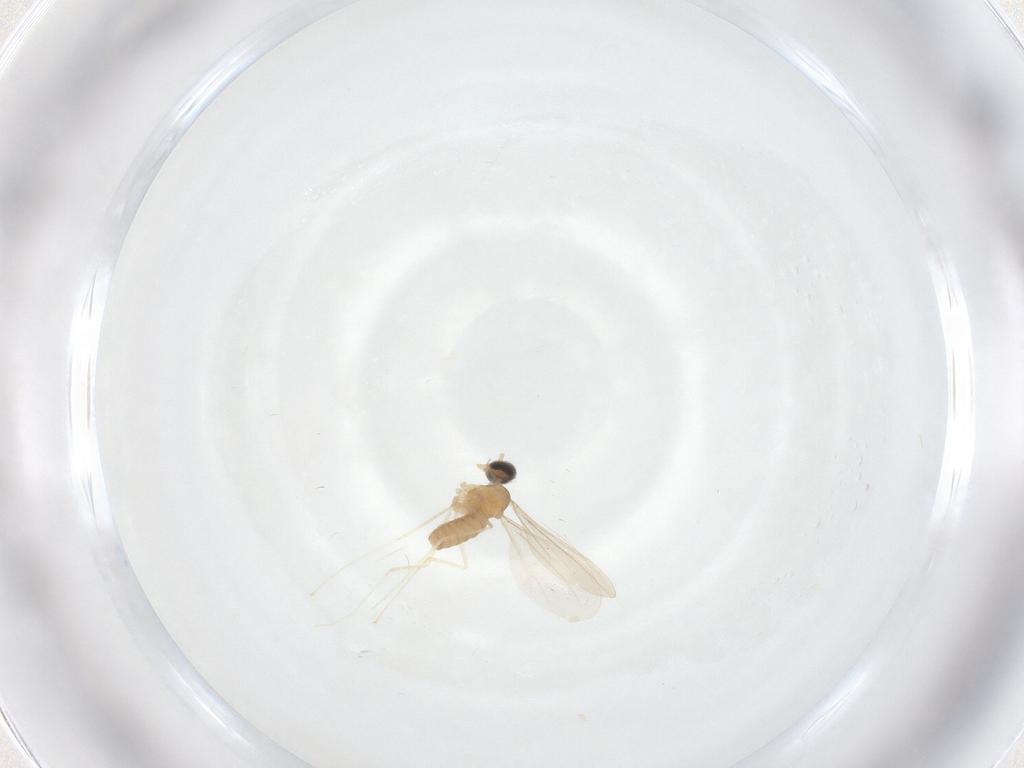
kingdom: Animalia
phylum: Arthropoda
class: Insecta
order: Diptera
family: Cecidomyiidae
